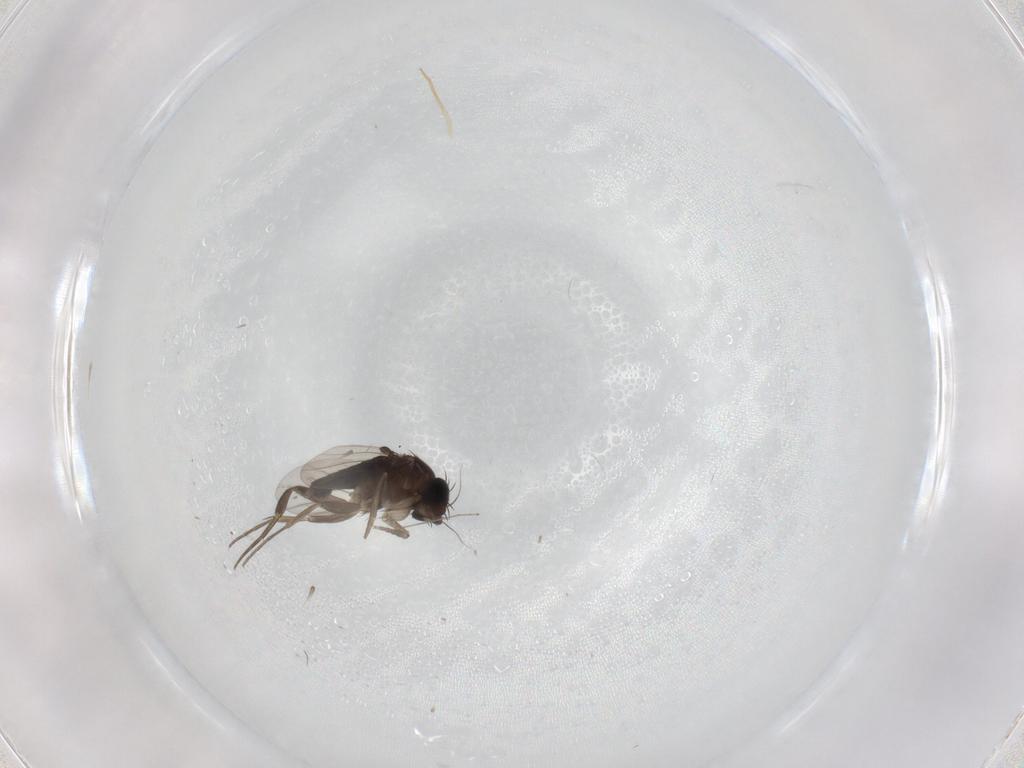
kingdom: Animalia
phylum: Arthropoda
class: Insecta
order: Diptera
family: Phoridae
